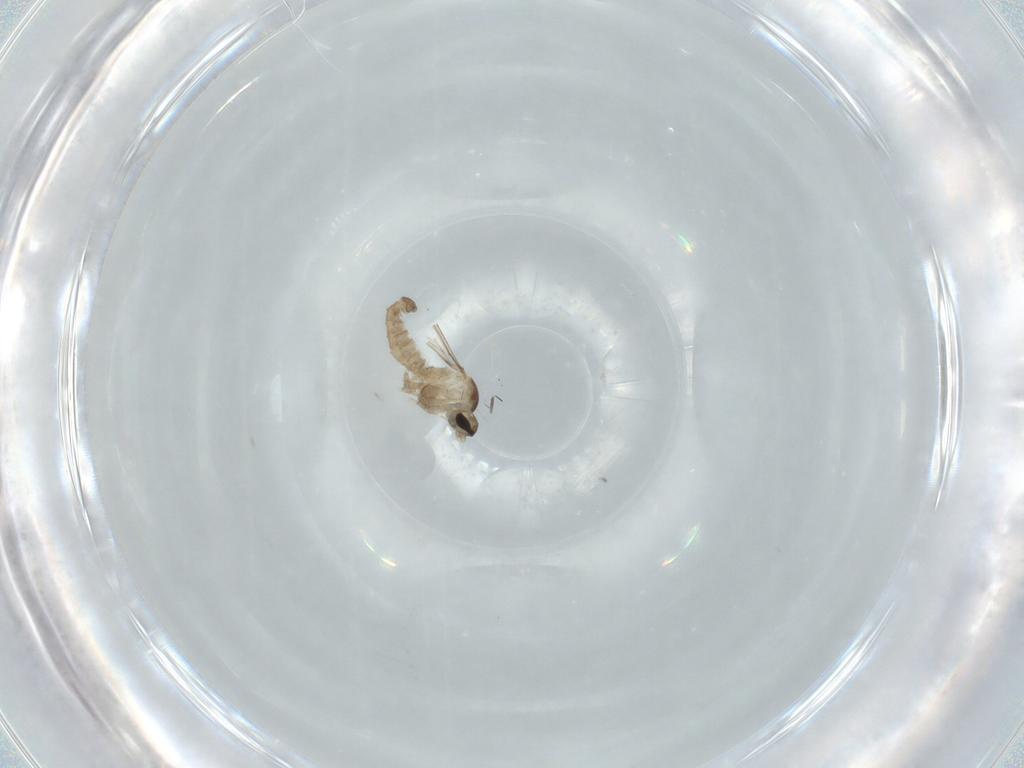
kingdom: Animalia
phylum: Arthropoda
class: Insecta
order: Diptera
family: Cecidomyiidae
